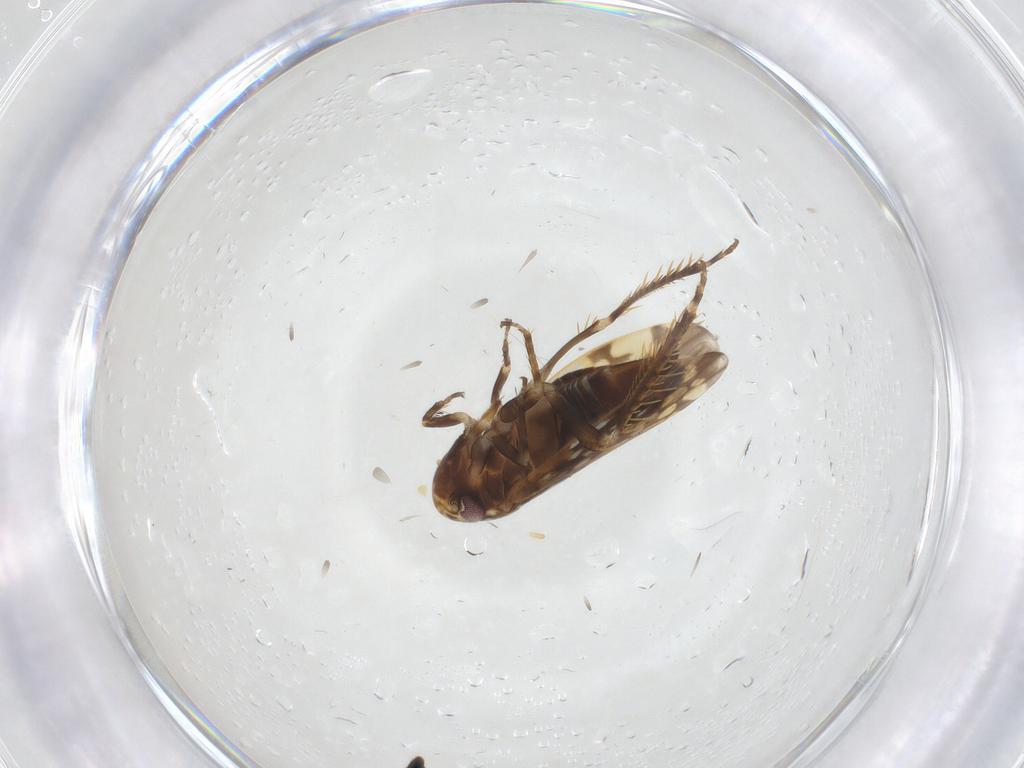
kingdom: Animalia
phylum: Arthropoda
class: Insecta
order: Hemiptera
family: Cicadellidae
